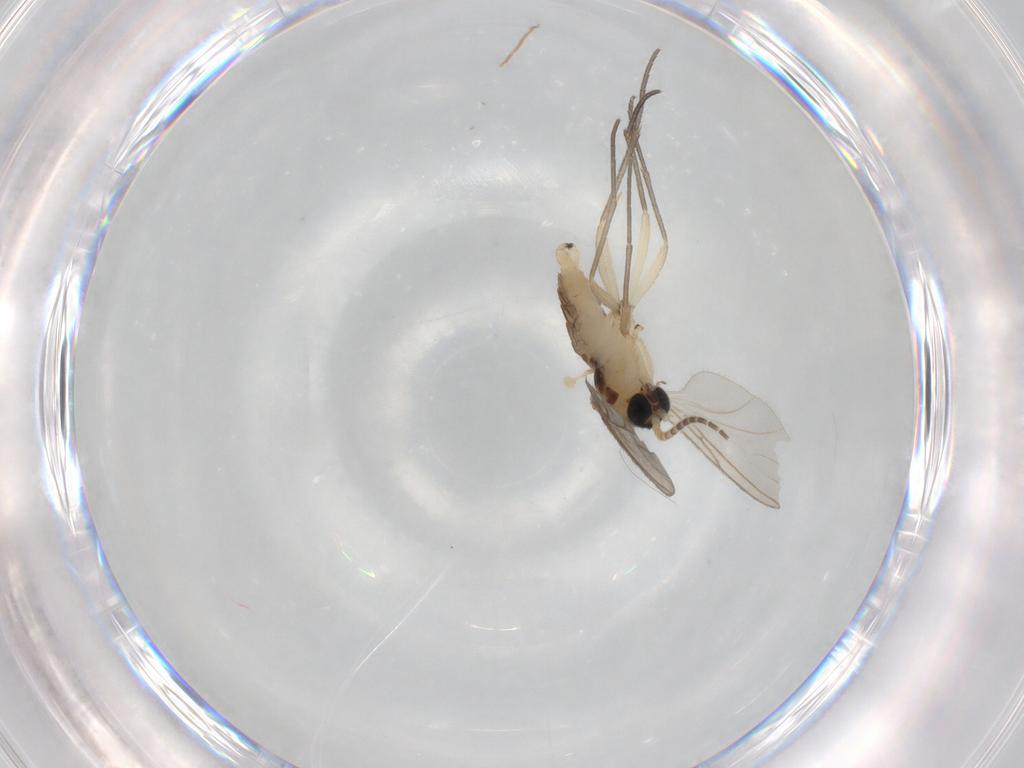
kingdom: Animalia
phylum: Arthropoda
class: Insecta
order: Diptera
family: Sciaridae
